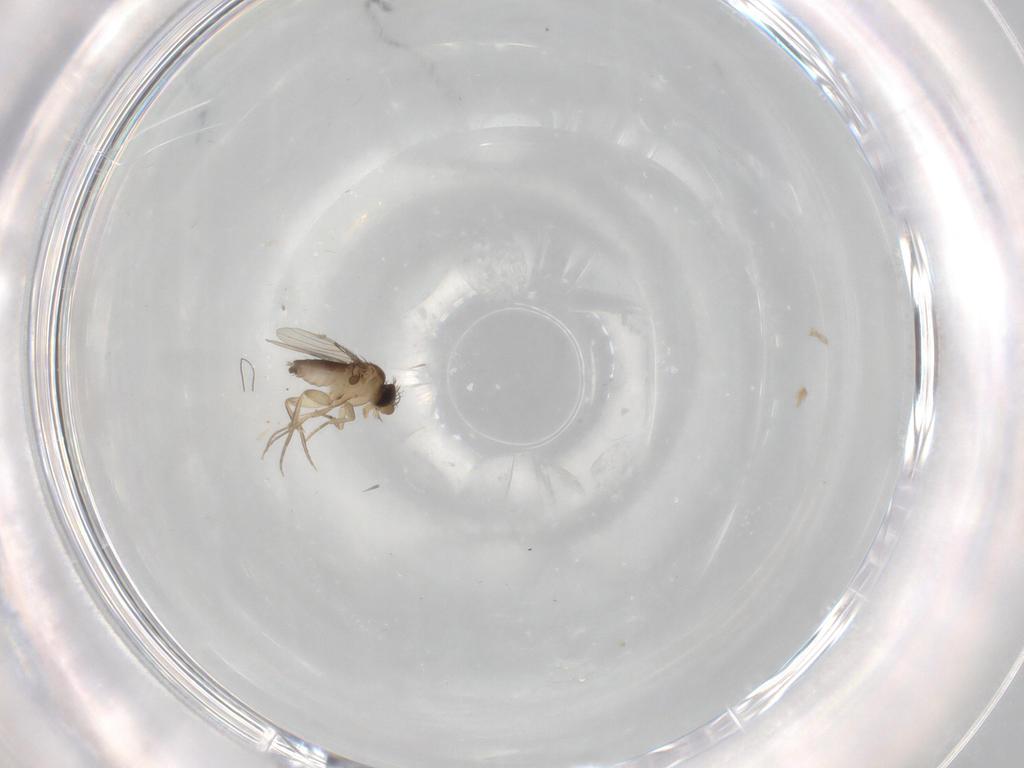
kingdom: Animalia
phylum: Arthropoda
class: Insecta
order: Diptera
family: Phoridae
